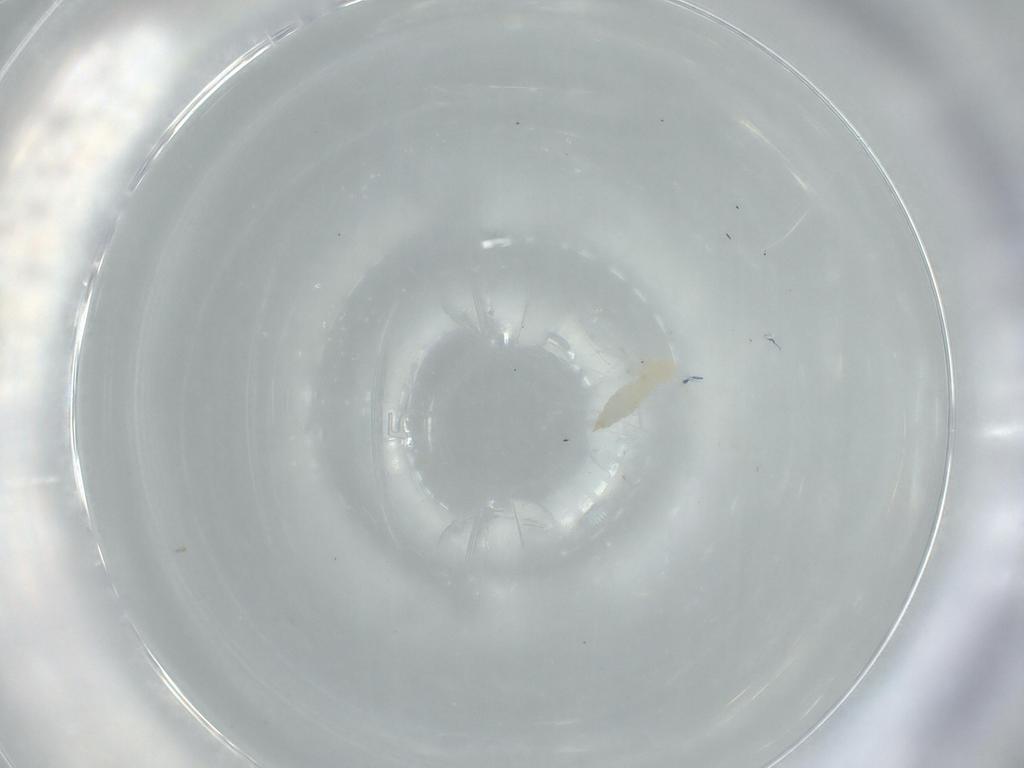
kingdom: Animalia
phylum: Arthropoda
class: Insecta
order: Diptera
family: Cecidomyiidae
